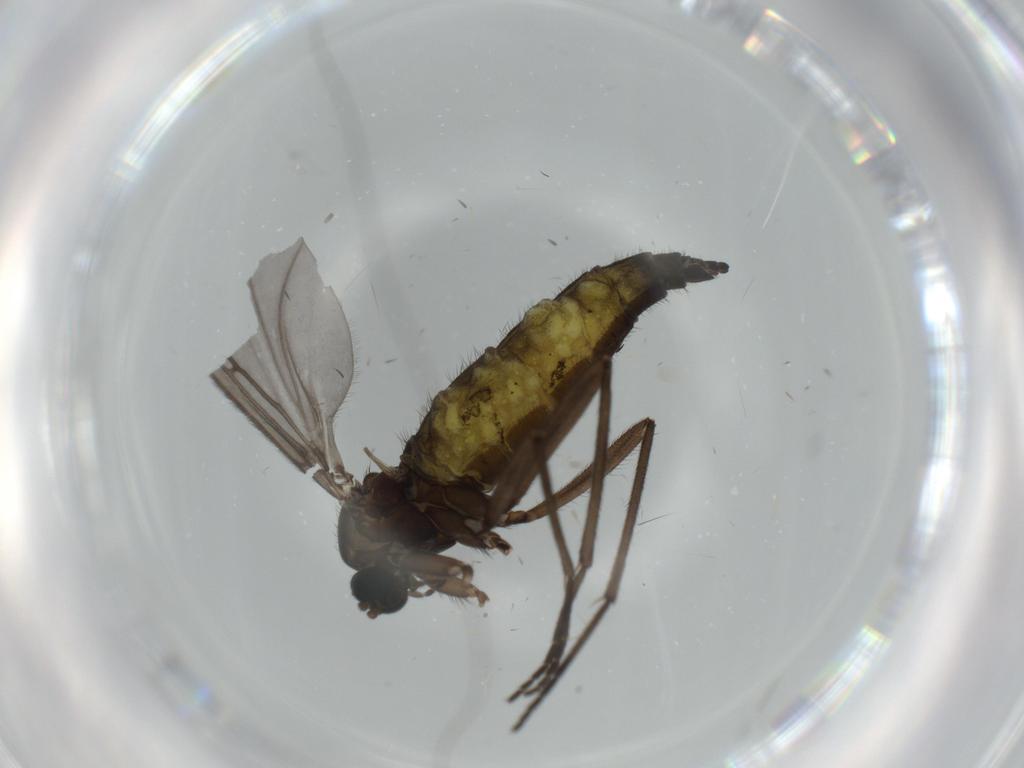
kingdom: Animalia
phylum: Arthropoda
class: Insecta
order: Diptera
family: Sciaridae
